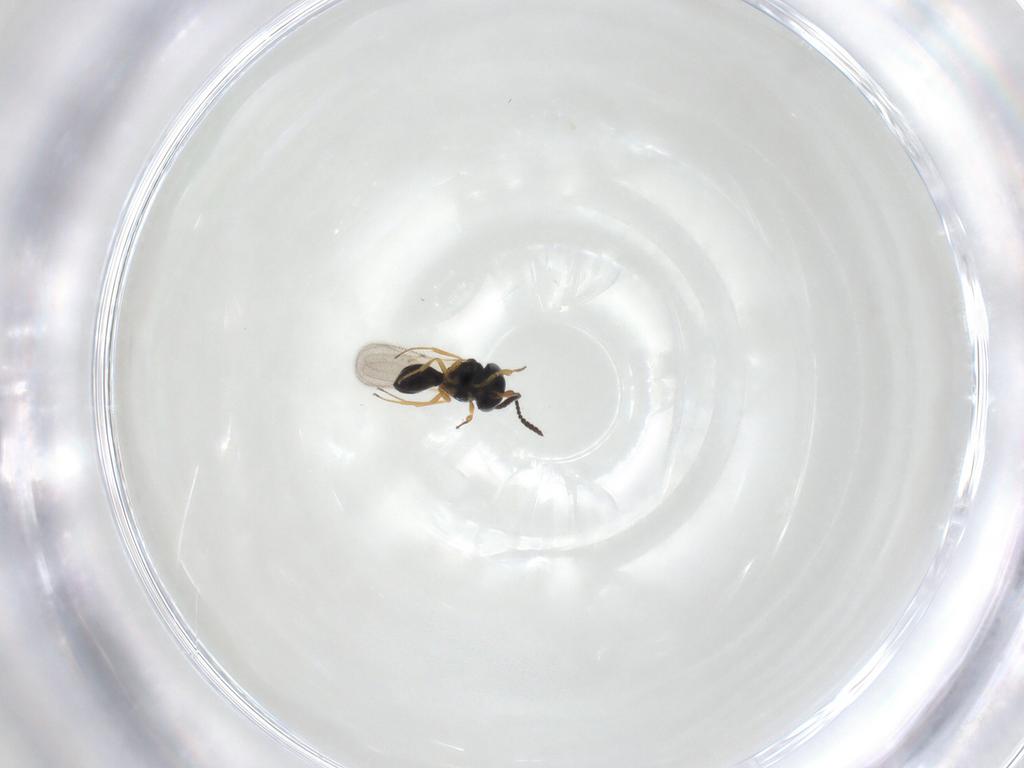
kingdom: Animalia
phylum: Arthropoda
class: Insecta
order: Hymenoptera
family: Scelionidae
